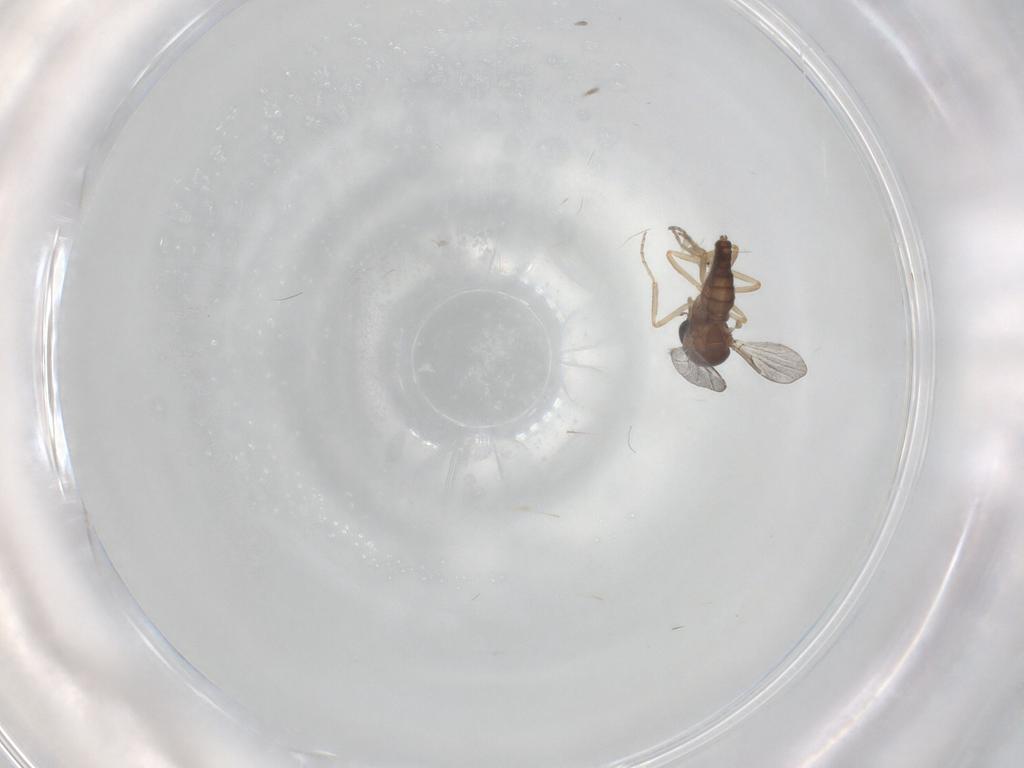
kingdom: Animalia
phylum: Arthropoda
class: Insecta
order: Diptera
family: Ceratopogonidae
